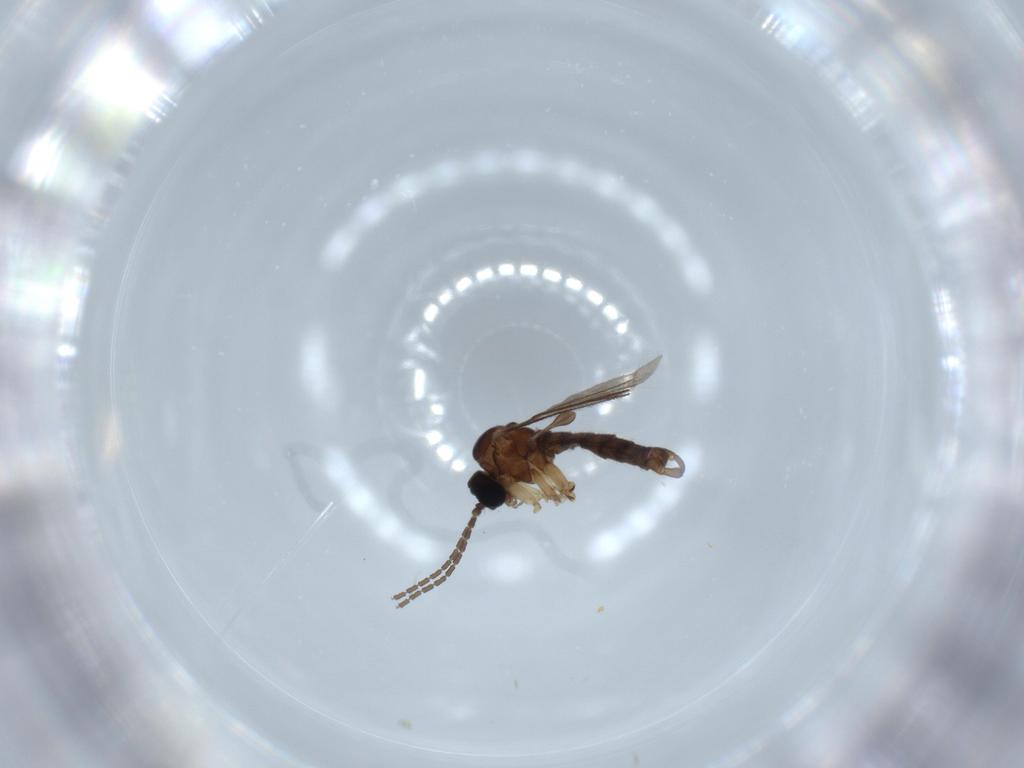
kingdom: Animalia
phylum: Arthropoda
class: Insecta
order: Diptera
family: Sciaridae
